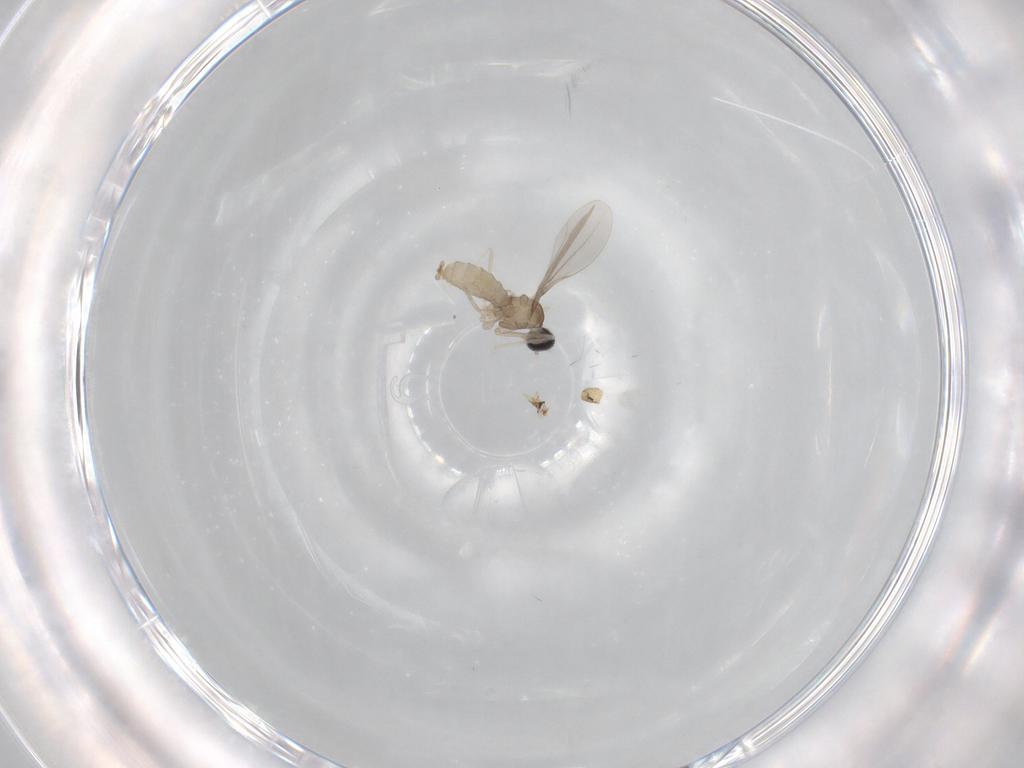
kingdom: Animalia
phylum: Arthropoda
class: Insecta
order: Diptera
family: Cecidomyiidae
